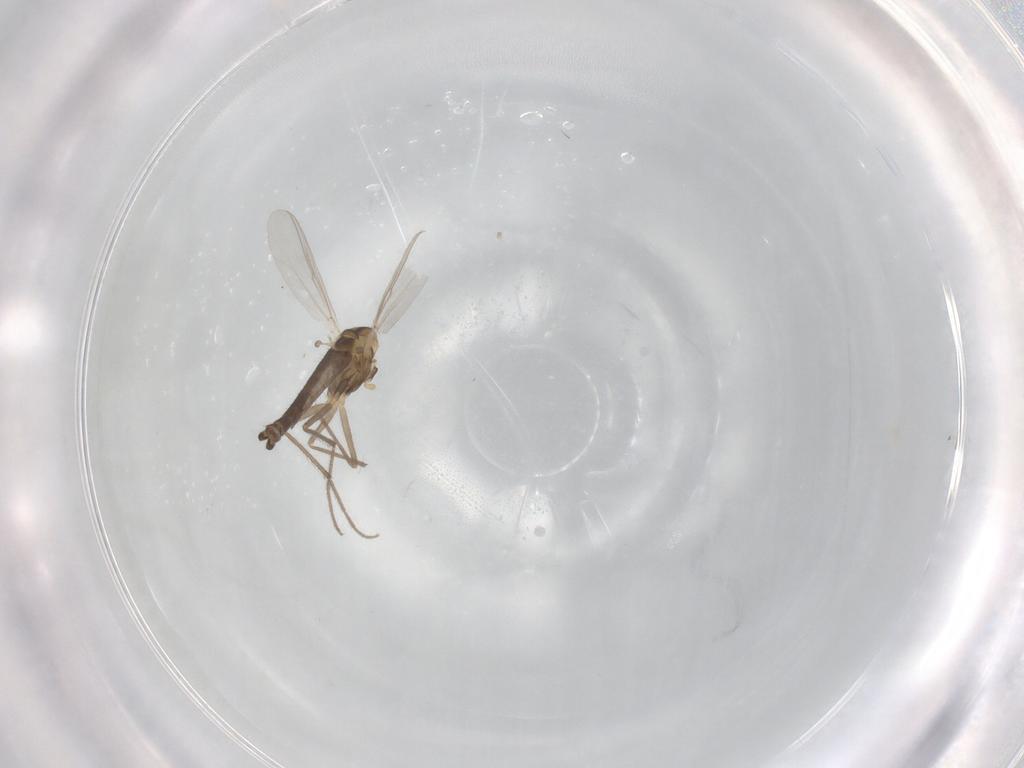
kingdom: Animalia
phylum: Arthropoda
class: Insecta
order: Diptera
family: Chironomidae
